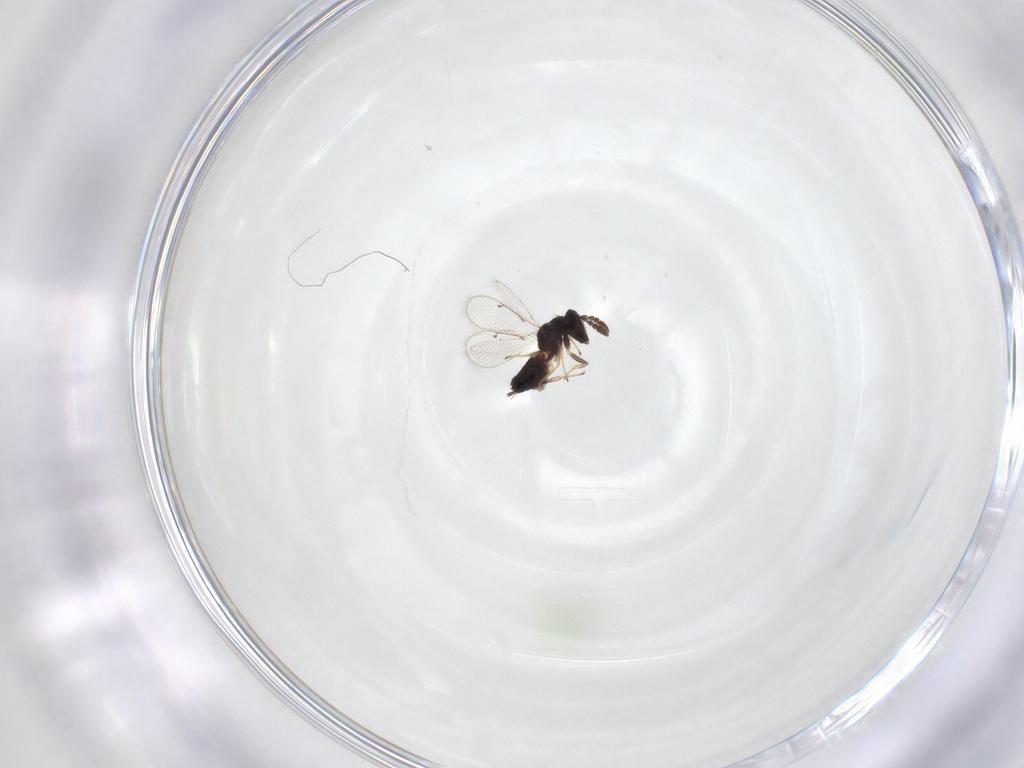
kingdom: Animalia
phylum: Arthropoda
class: Insecta
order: Hymenoptera
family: Pirenidae
